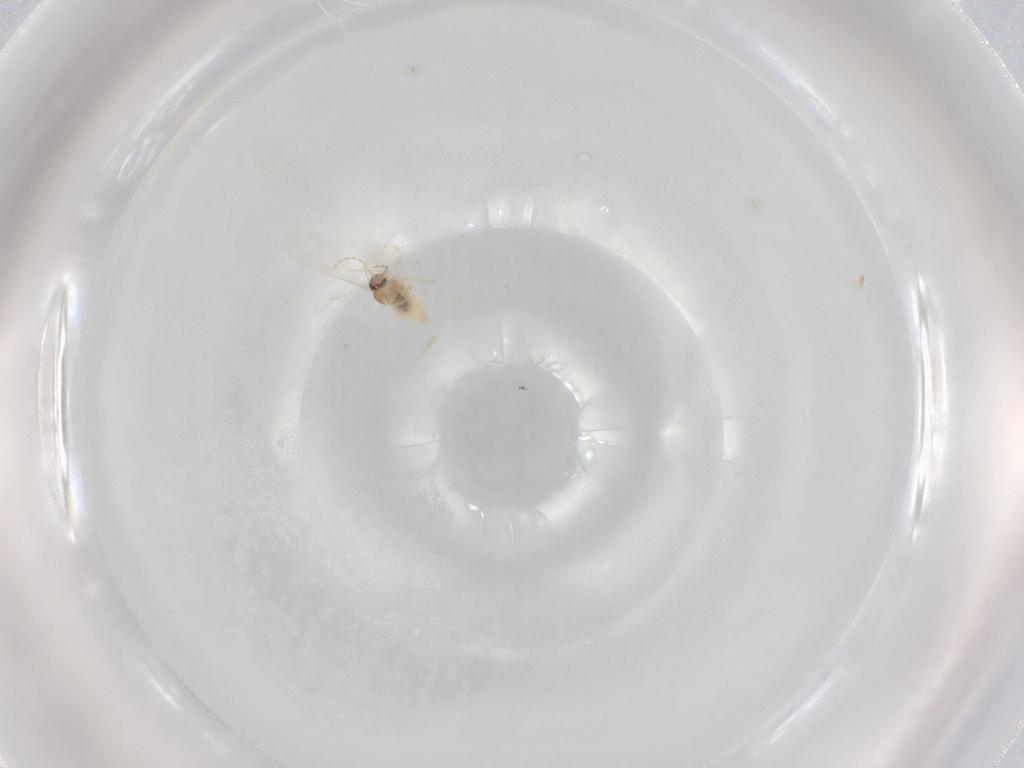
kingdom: Animalia
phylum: Arthropoda
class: Insecta
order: Diptera
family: Cecidomyiidae
